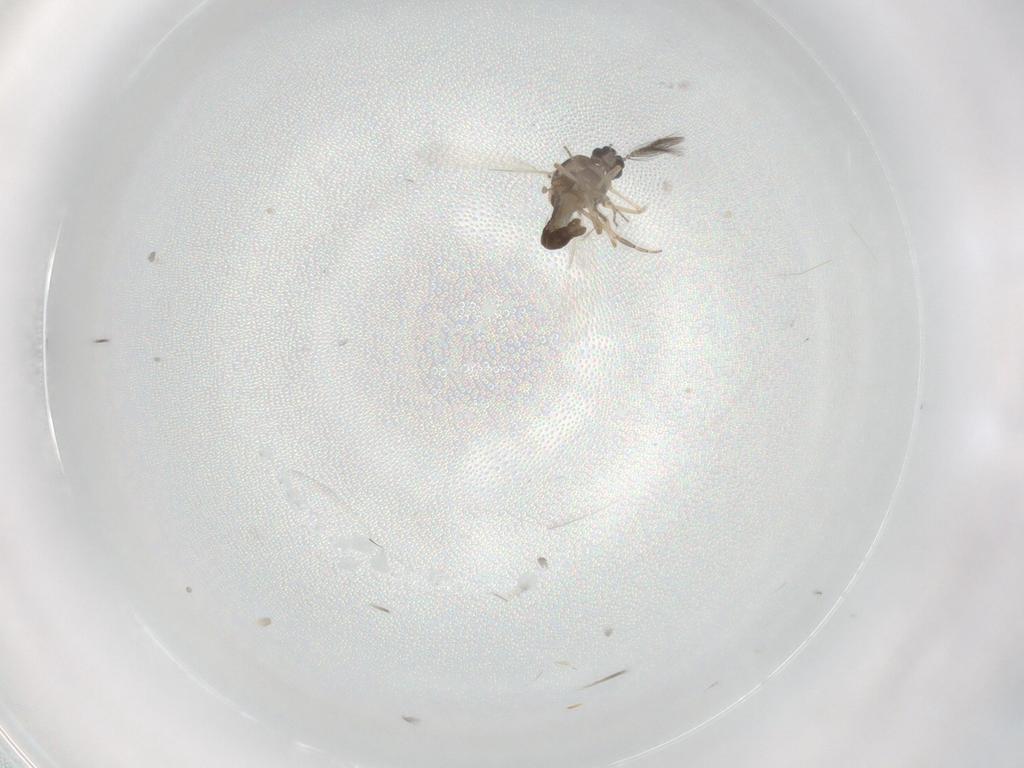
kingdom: Animalia
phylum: Arthropoda
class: Insecta
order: Diptera
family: Ceratopogonidae
